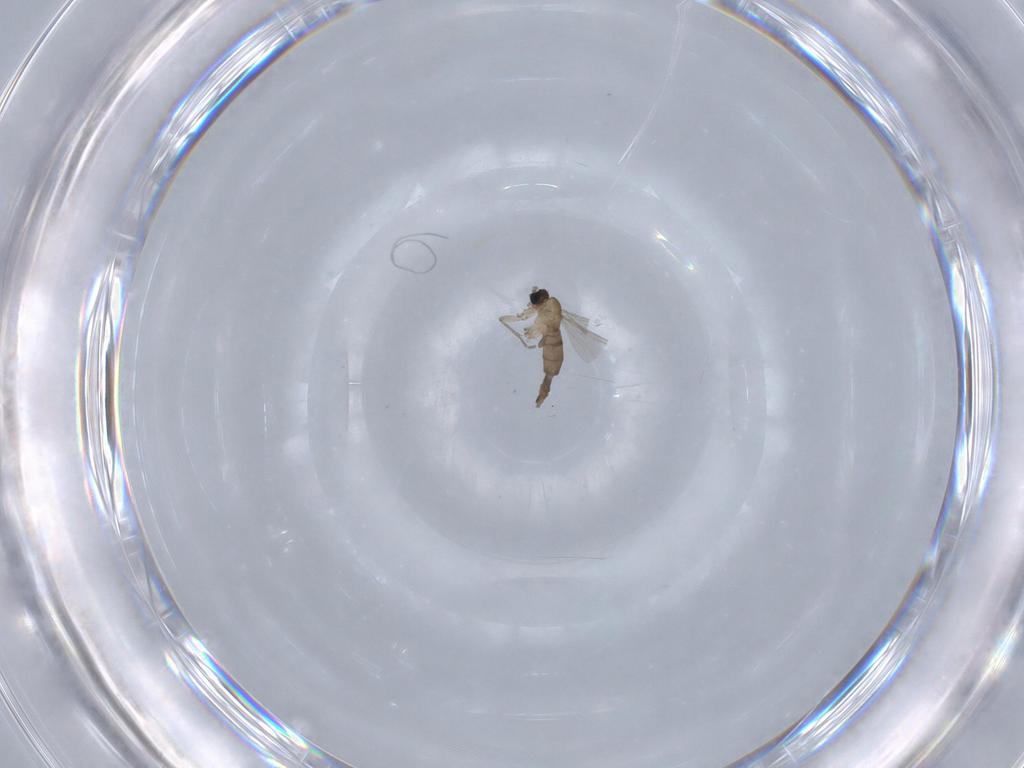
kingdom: Animalia
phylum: Arthropoda
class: Insecta
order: Diptera
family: Sciaridae
